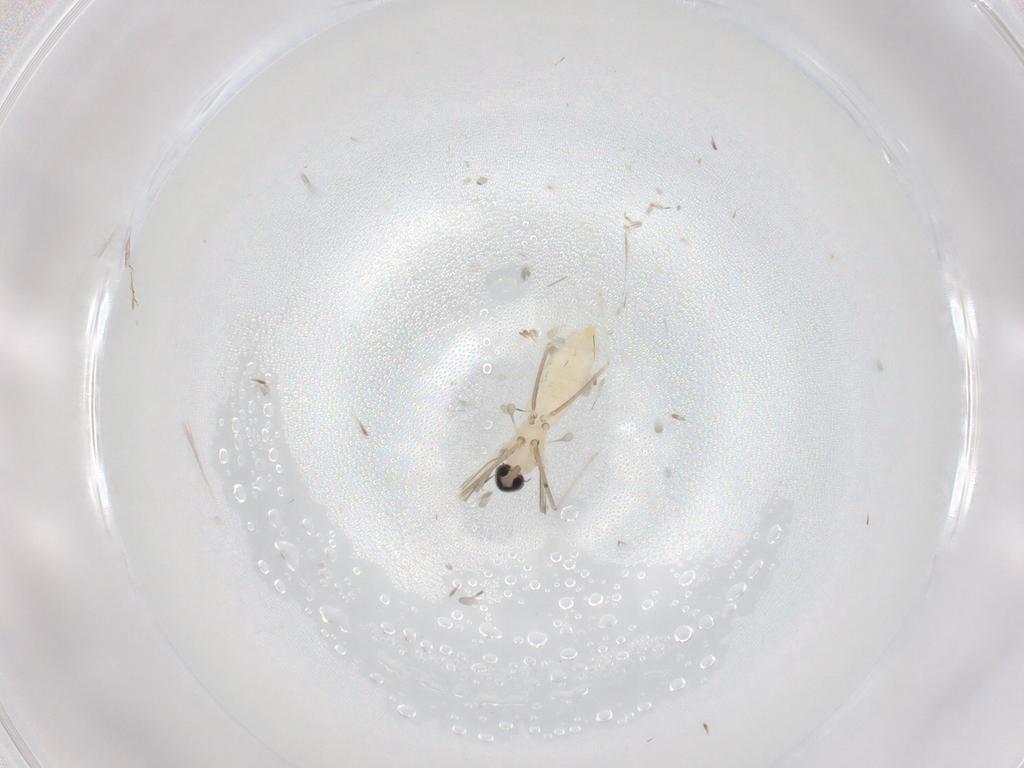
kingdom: Animalia
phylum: Arthropoda
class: Insecta
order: Diptera
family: Cecidomyiidae
